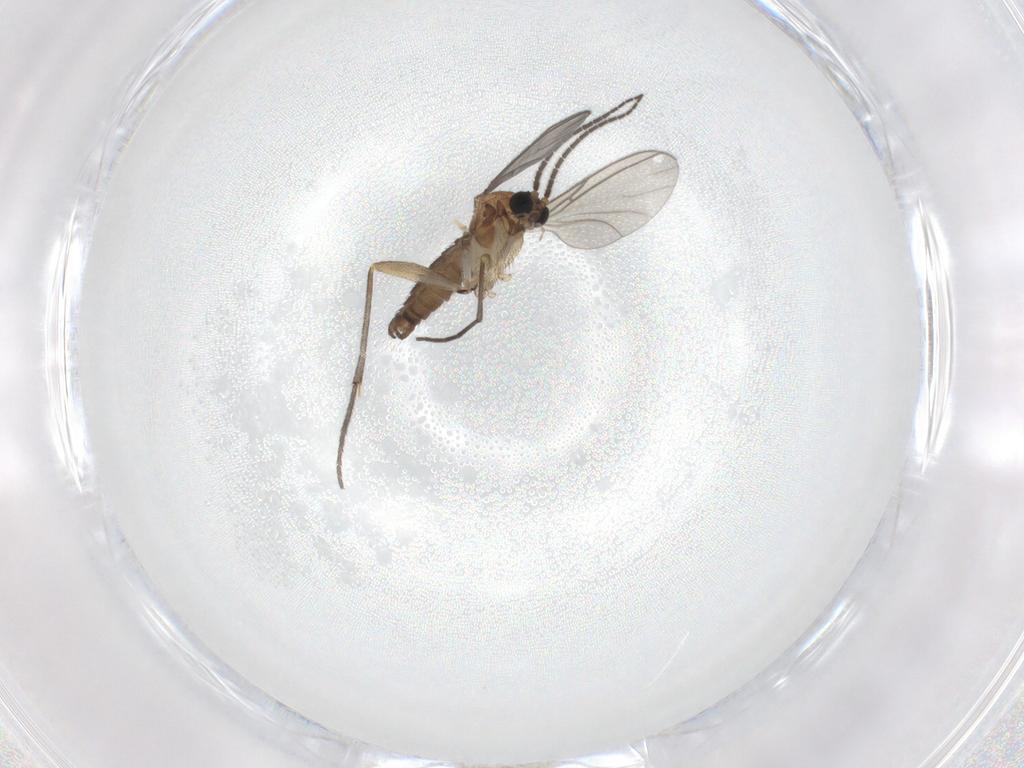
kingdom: Animalia
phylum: Arthropoda
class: Insecta
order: Diptera
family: Sciaridae
